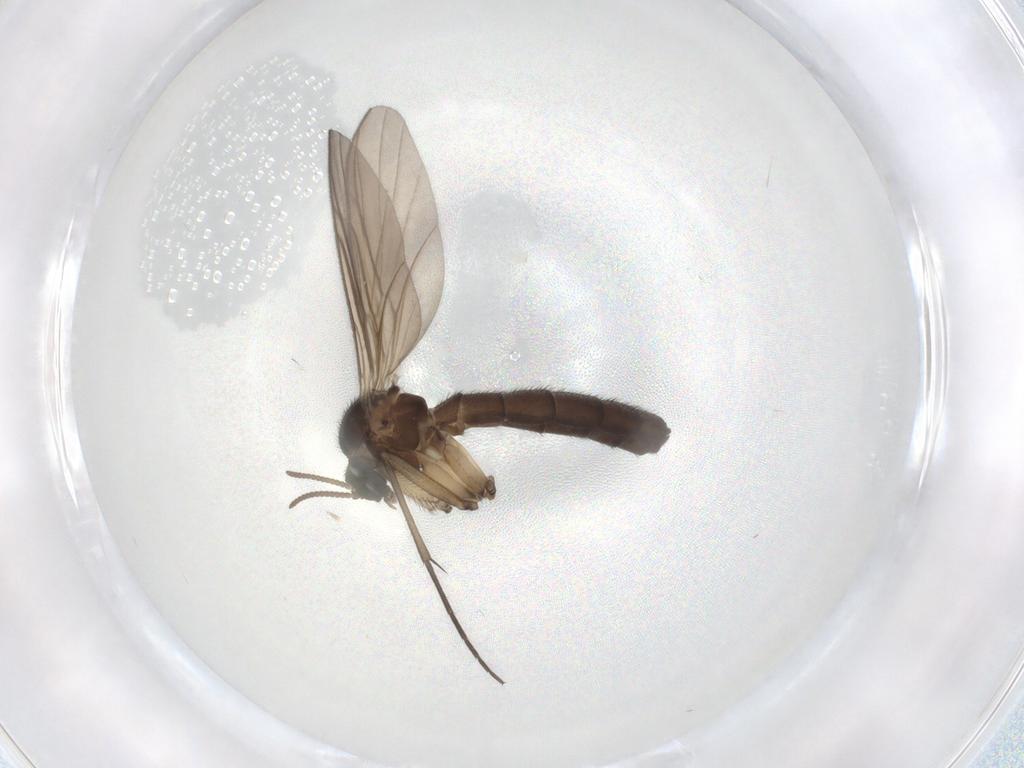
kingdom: Animalia
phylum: Arthropoda
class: Insecta
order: Diptera
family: Keroplatidae
